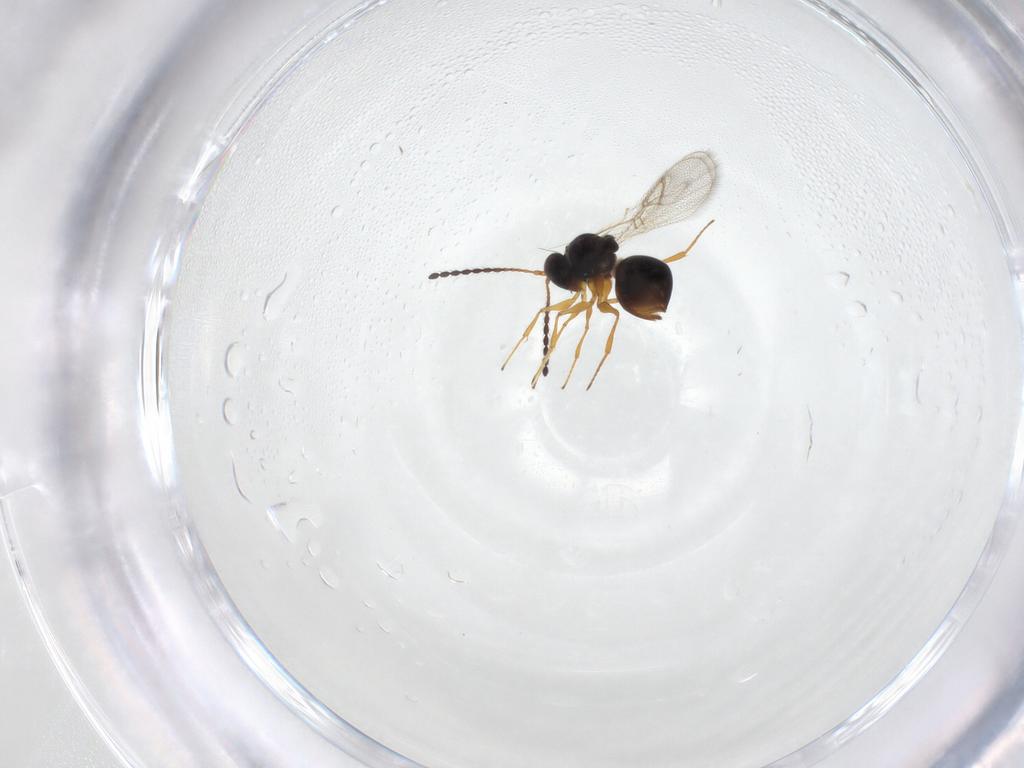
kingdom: Animalia
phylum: Arthropoda
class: Insecta
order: Hymenoptera
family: Figitidae
